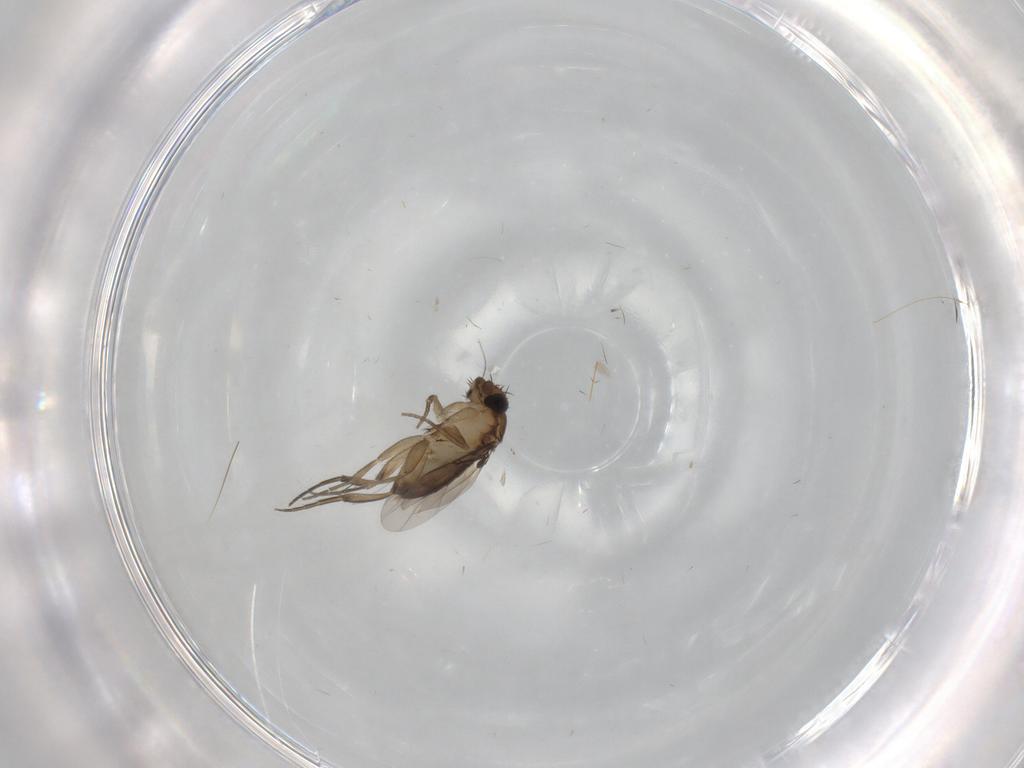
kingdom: Animalia
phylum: Arthropoda
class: Insecta
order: Diptera
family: Phoridae
